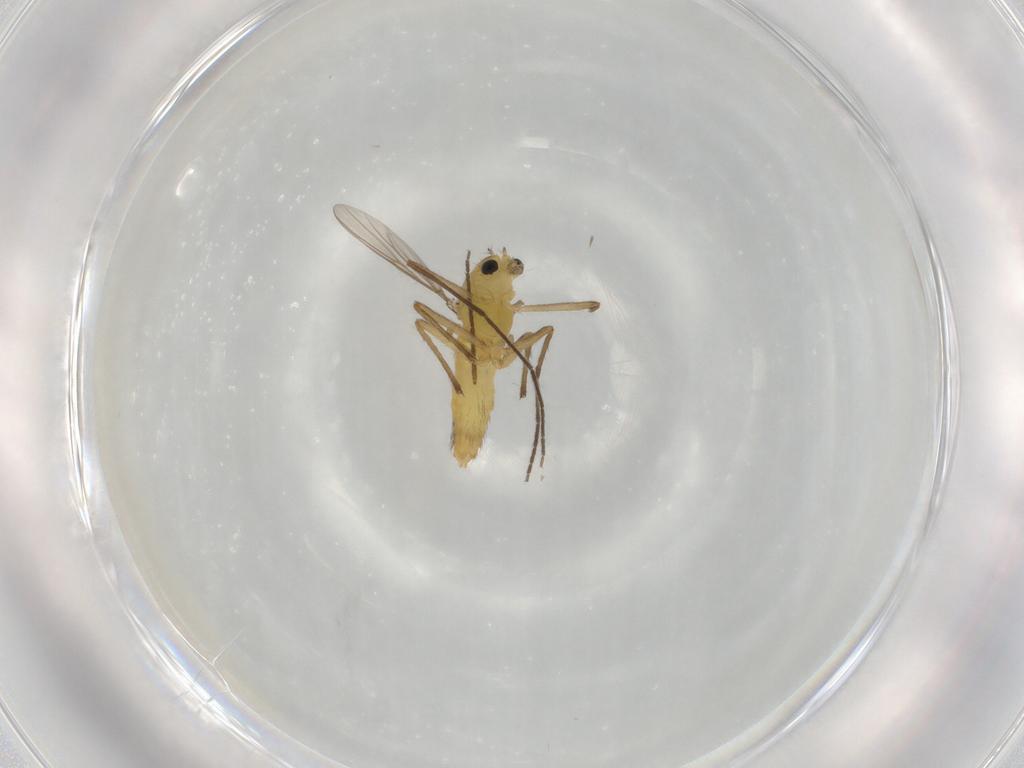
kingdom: Animalia
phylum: Arthropoda
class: Insecta
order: Diptera
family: Chironomidae
